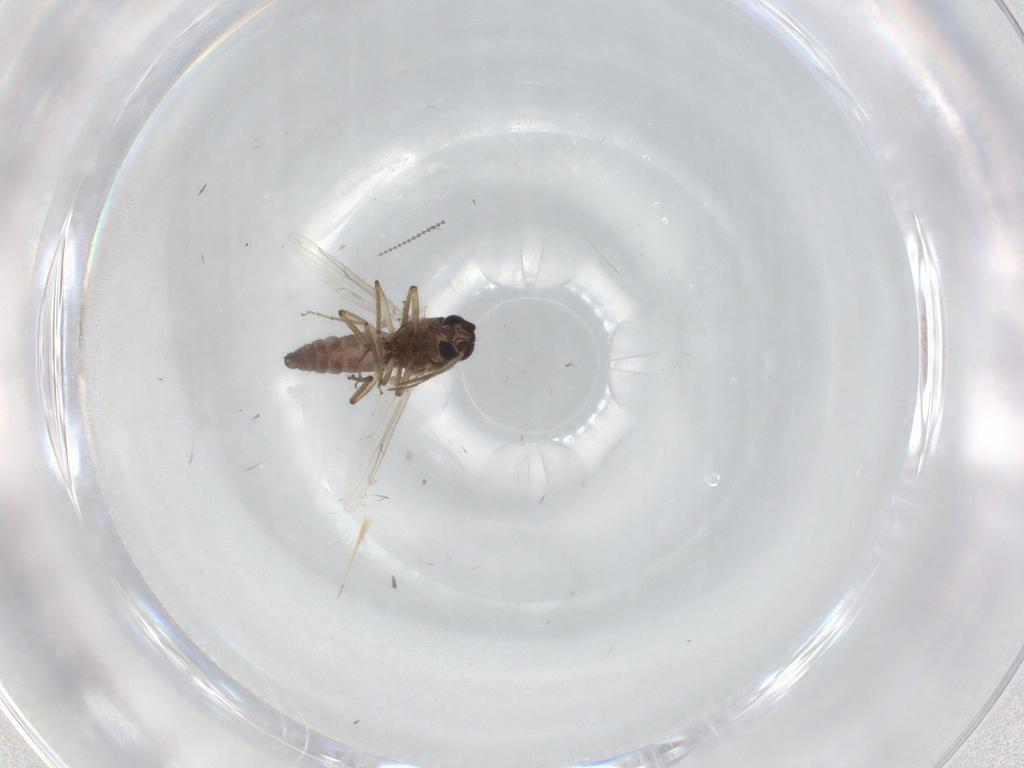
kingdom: Animalia
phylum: Arthropoda
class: Insecta
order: Diptera
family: Ceratopogonidae
